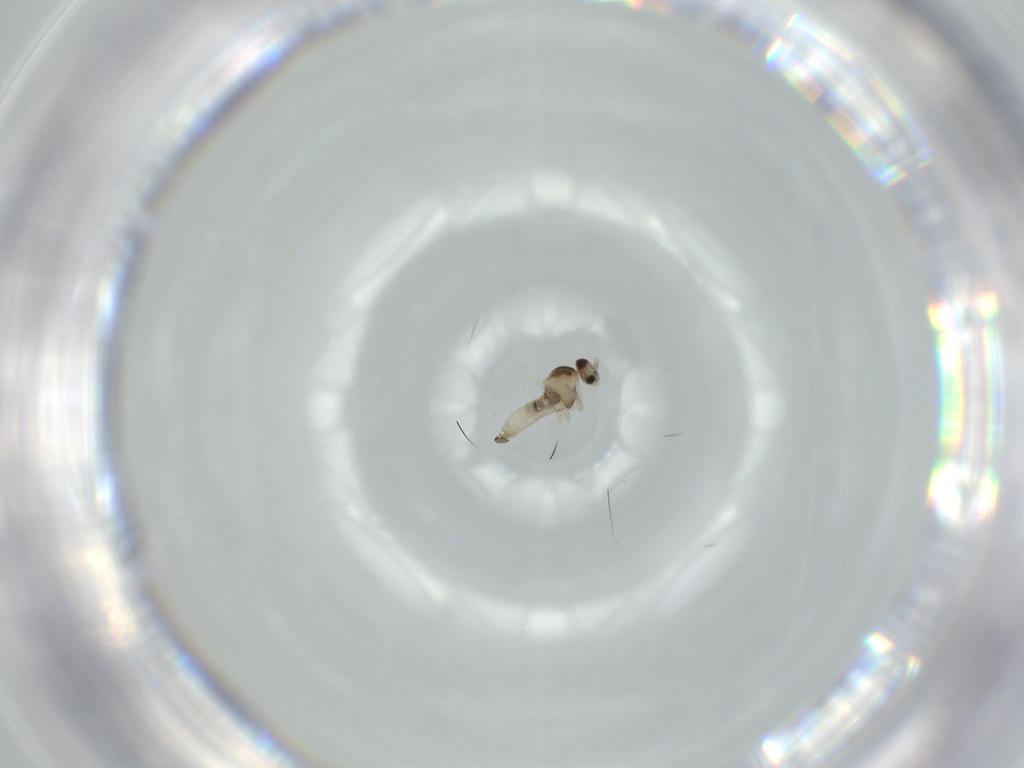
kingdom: Animalia
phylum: Arthropoda
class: Insecta
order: Diptera
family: Cecidomyiidae
